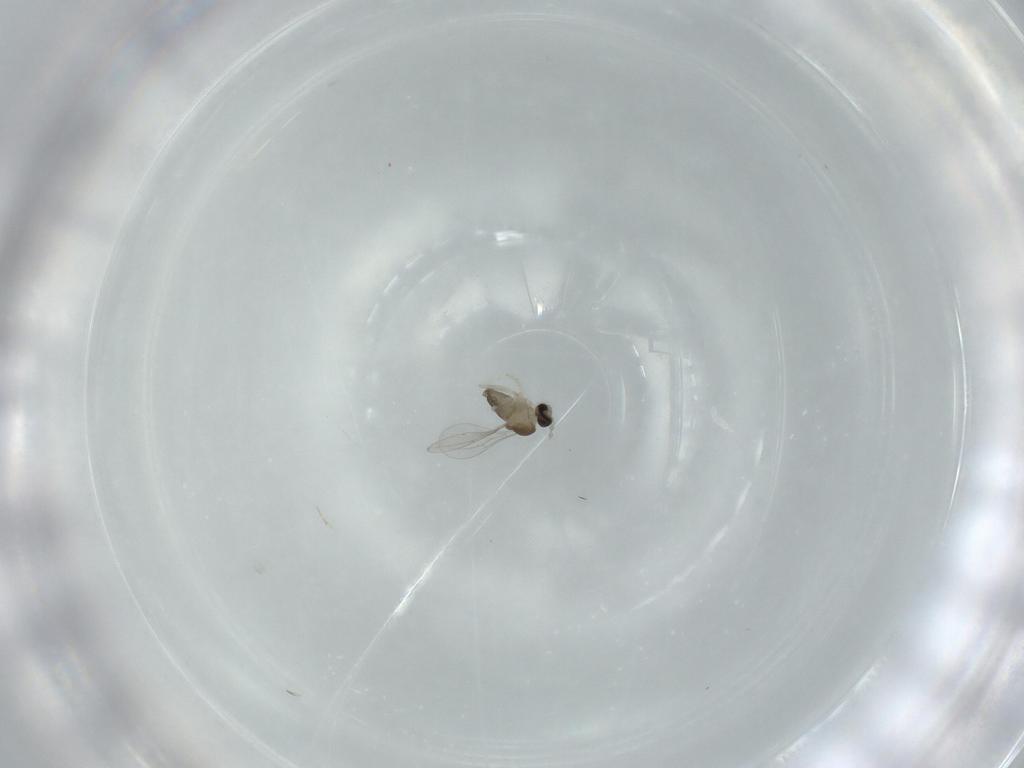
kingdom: Animalia
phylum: Arthropoda
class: Insecta
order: Diptera
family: Cecidomyiidae
